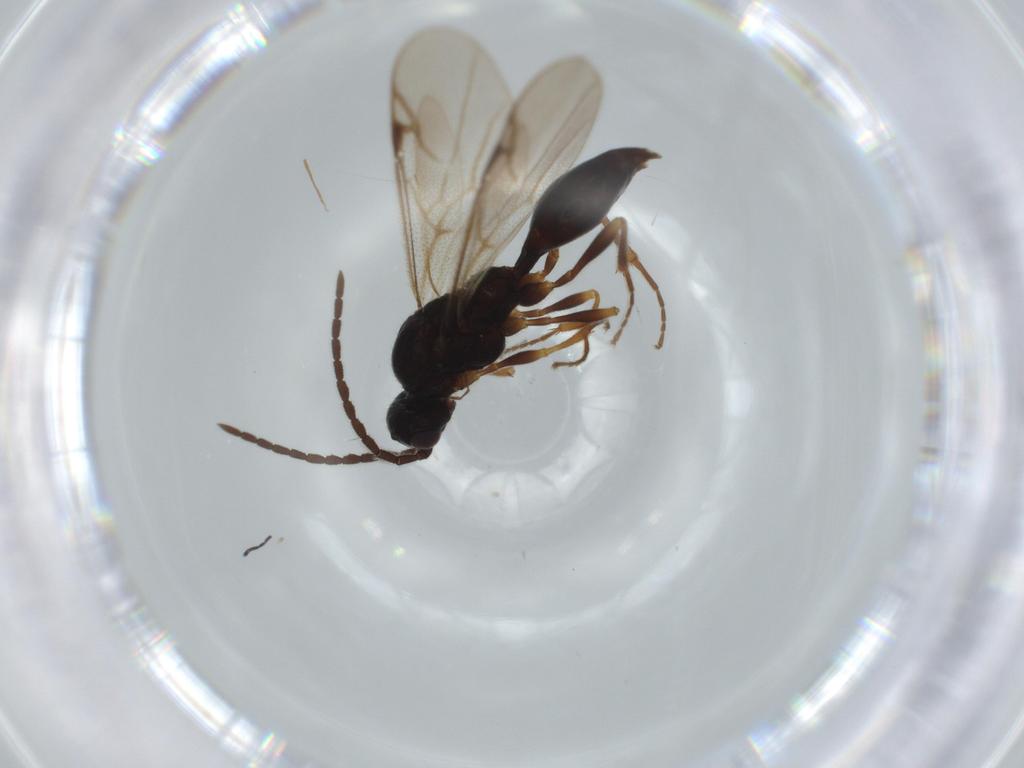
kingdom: Animalia
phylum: Arthropoda
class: Insecta
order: Hymenoptera
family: Proctotrupidae
